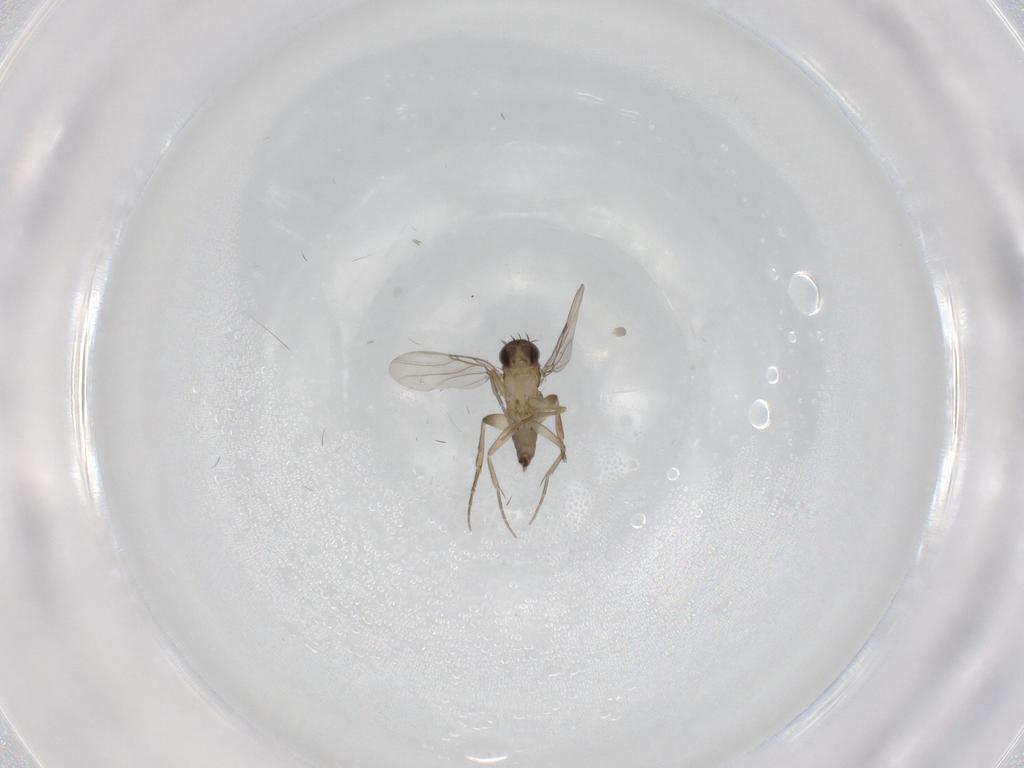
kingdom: Animalia
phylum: Arthropoda
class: Insecta
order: Diptera
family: Phoridae
